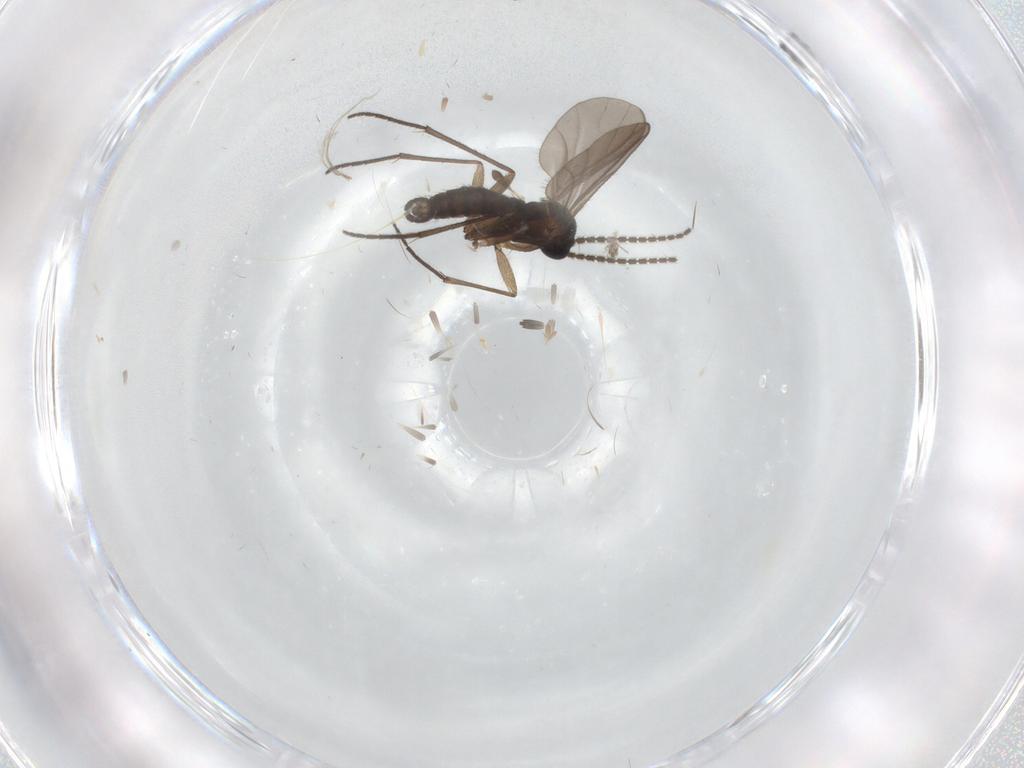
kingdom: Animalia
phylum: Arthropoda
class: Insecta
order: Diptera
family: Sciaridae
